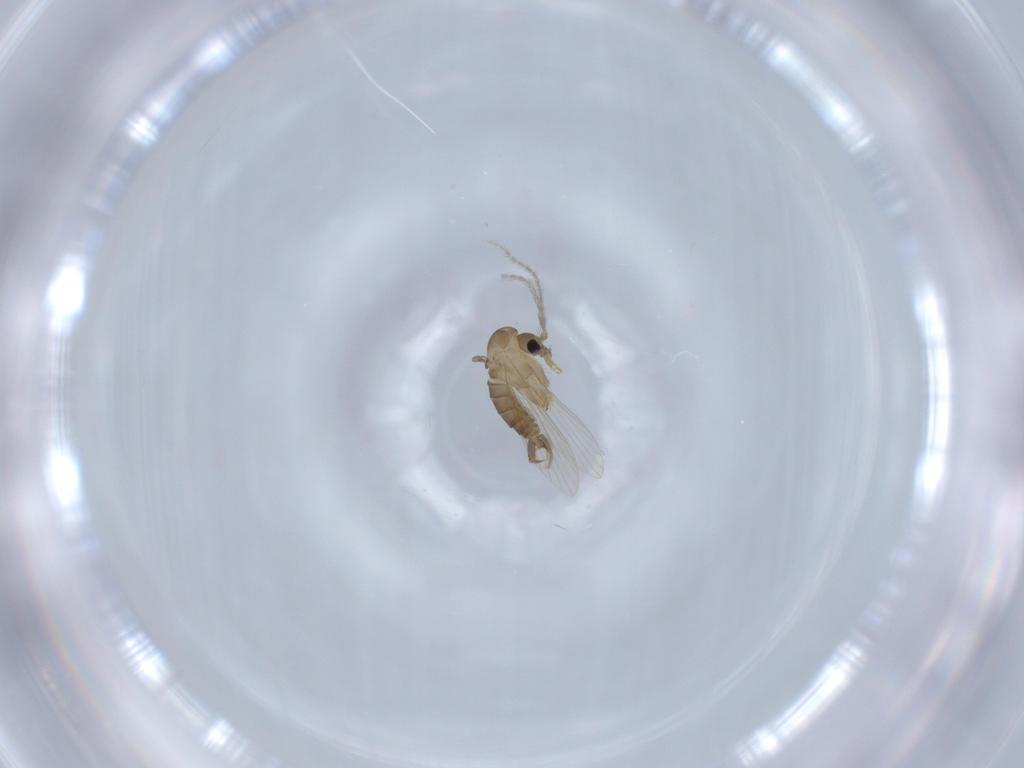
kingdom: Animalia
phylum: Arthropoda
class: Insecta
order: Diptera
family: Psychodidae
